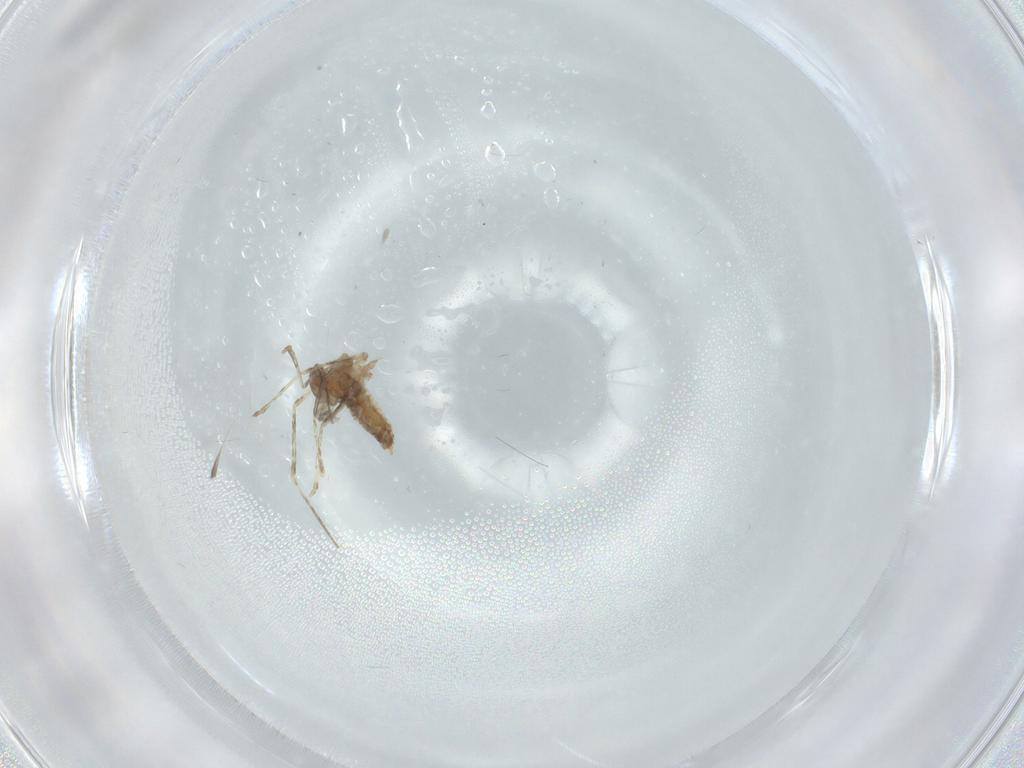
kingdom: Animalia
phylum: Arthropoda
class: Insecta
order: Diptera
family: Cecidomyiidae
